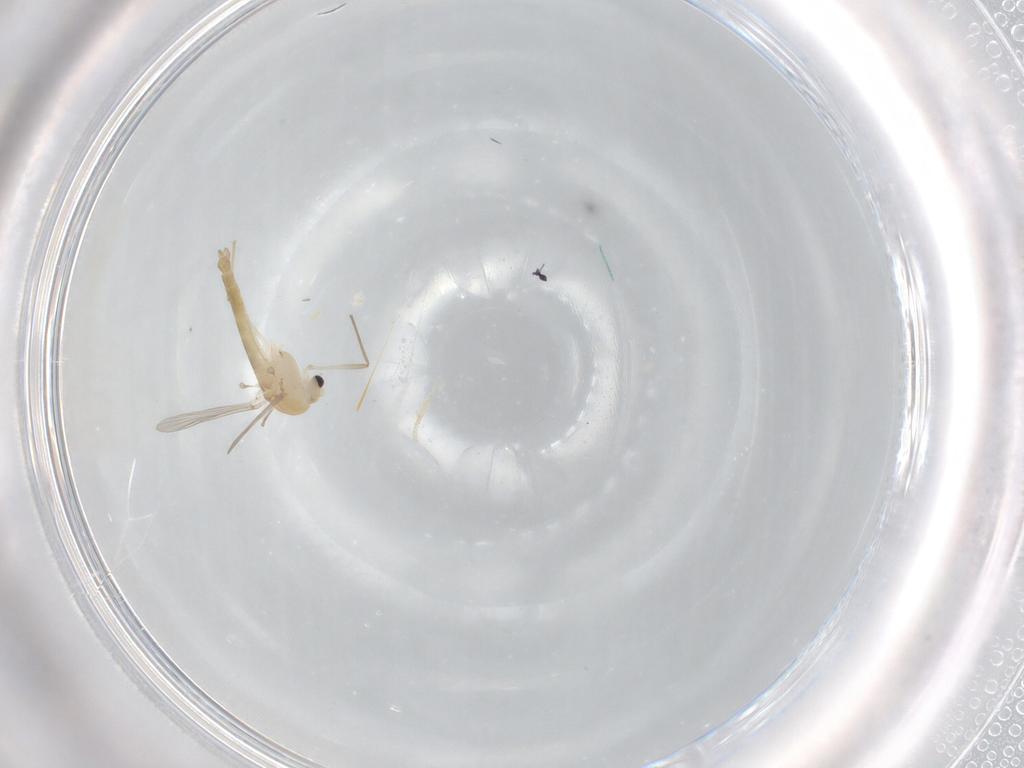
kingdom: Animalia
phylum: Arthropoda
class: Insecta
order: Diptera
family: Chironomidae
